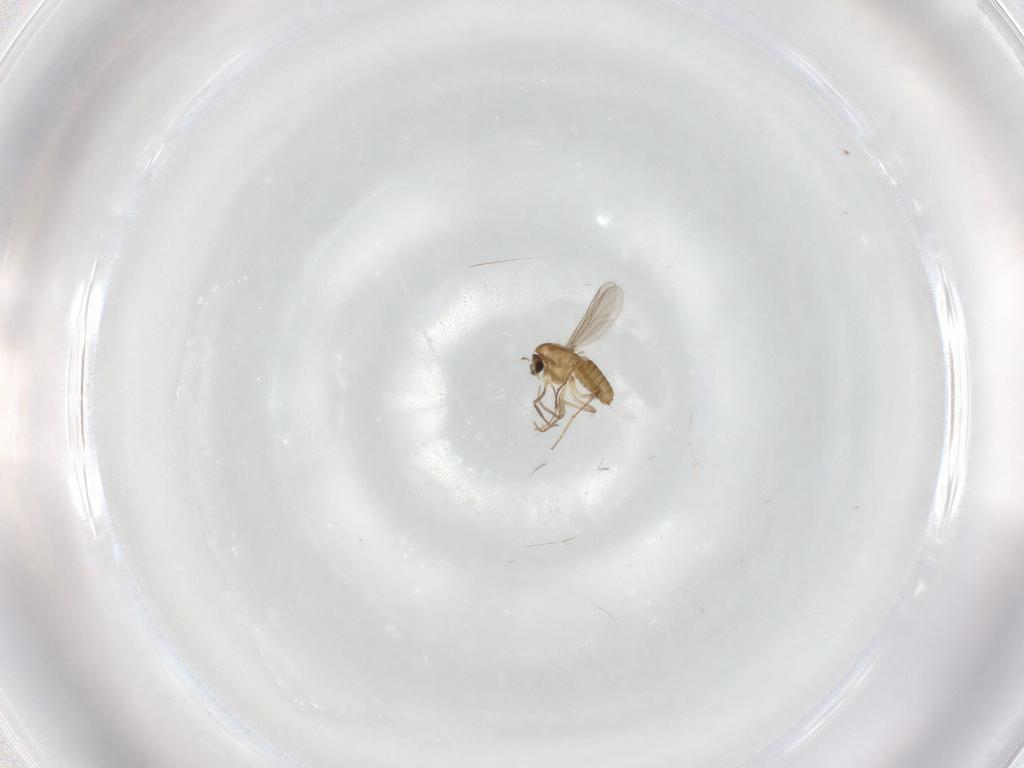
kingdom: Animalia
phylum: Arthropoda
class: Insecta
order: Diptera
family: Chironomidae
